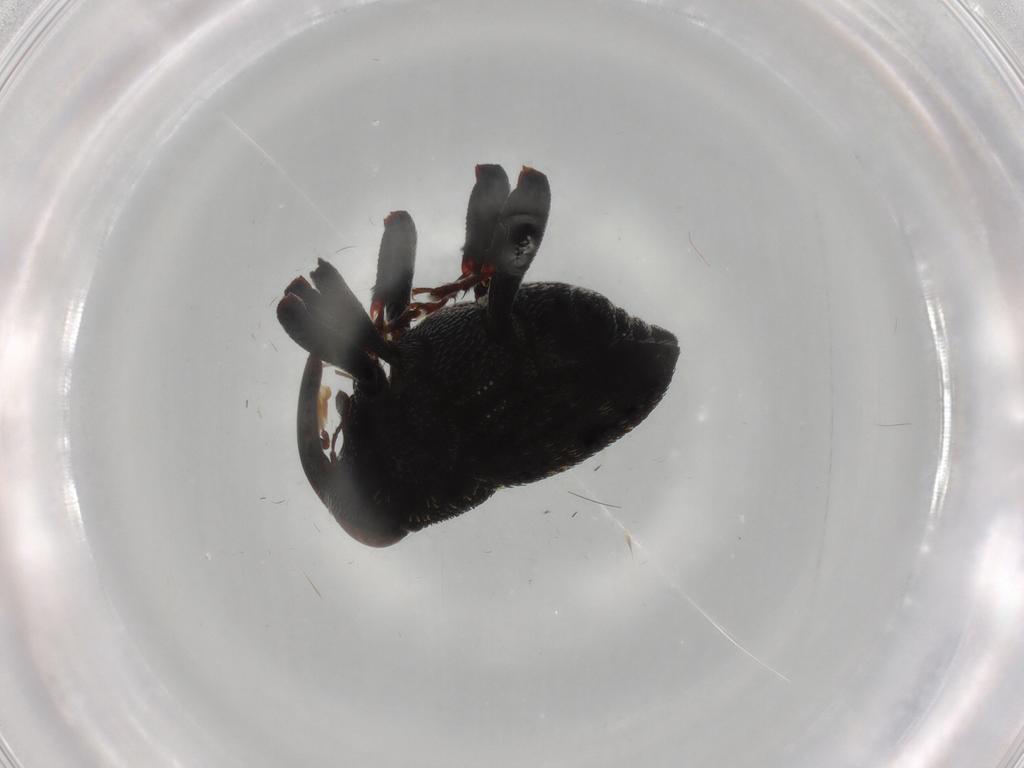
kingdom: Animalia
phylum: Arthropoda
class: Insecta
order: Coleoptera
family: Curculionidae
